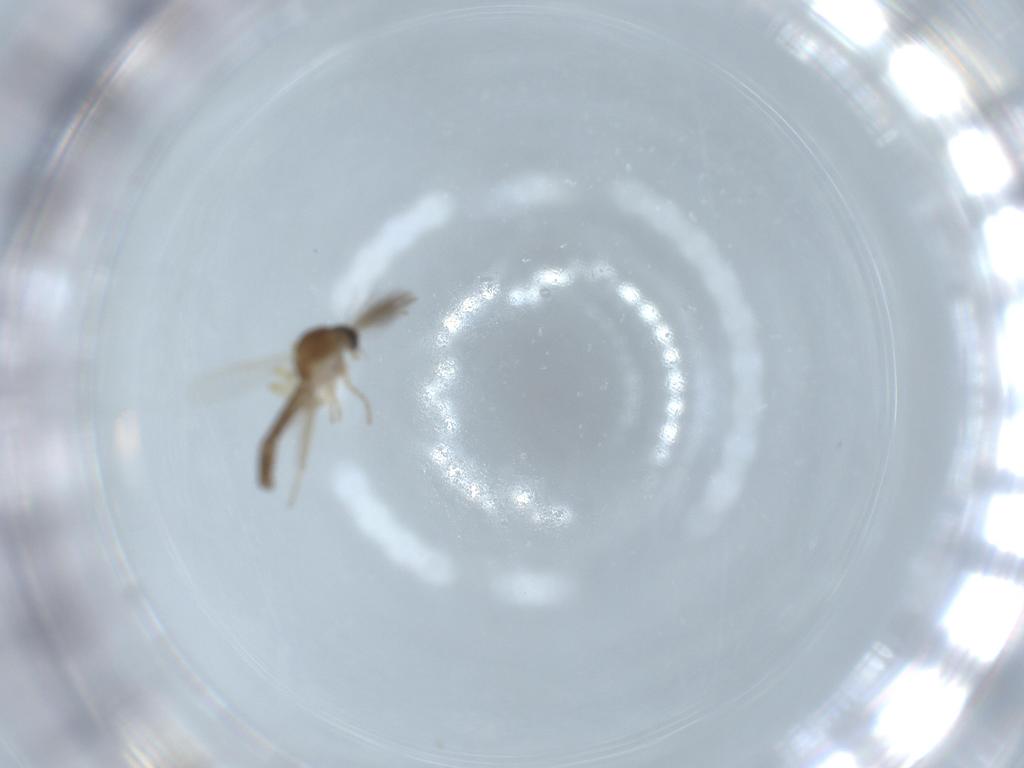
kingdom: Animalia
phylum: Arthropoda
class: Insecta
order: Diptera
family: Ceratopogonidae
